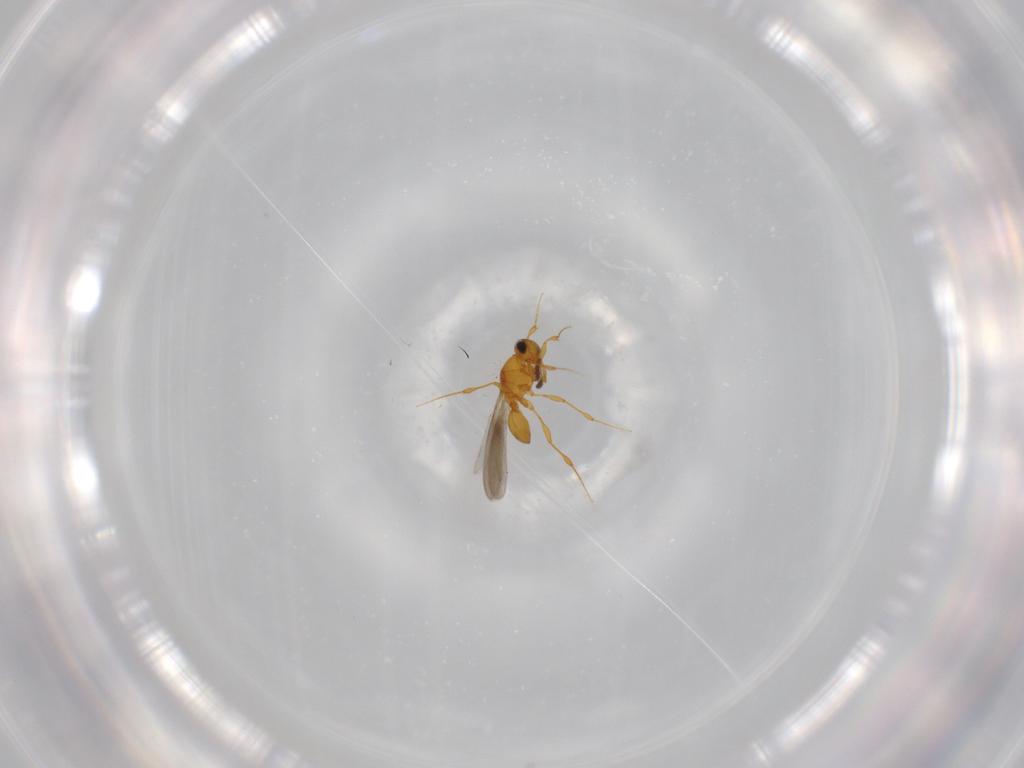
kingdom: Animalia
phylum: Arthropoda
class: Insecta
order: Hymenoptera
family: Platygastridae
